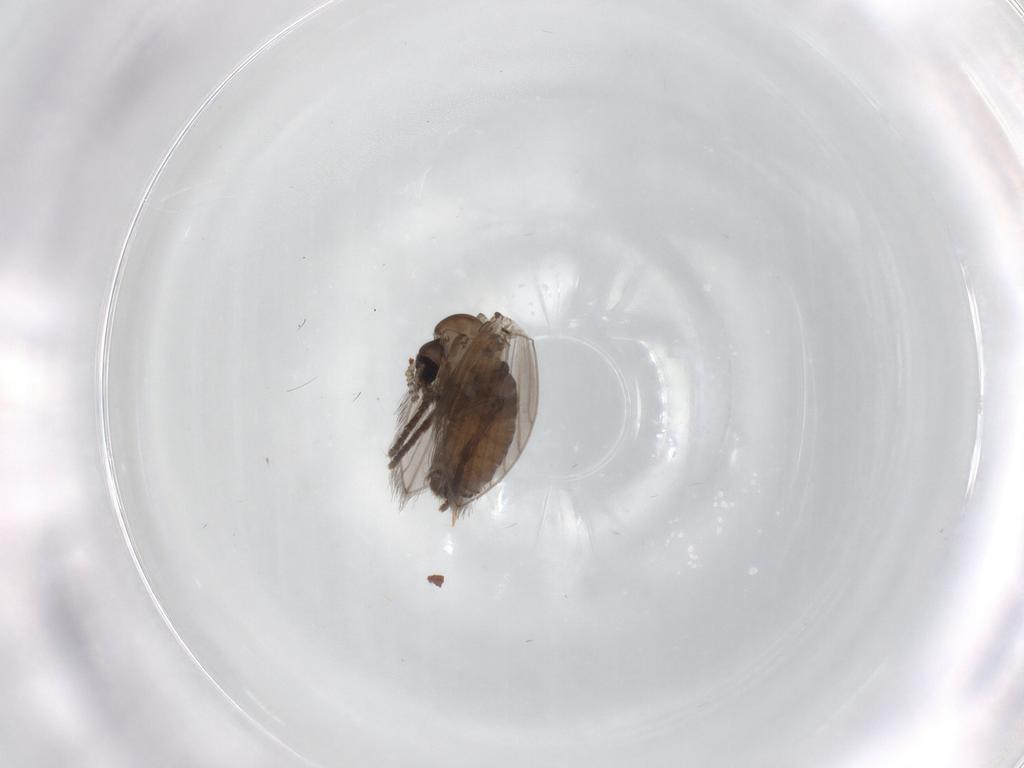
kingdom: Animalia
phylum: Arthropoda
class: Insecta
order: Diptera
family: Psychodidae
